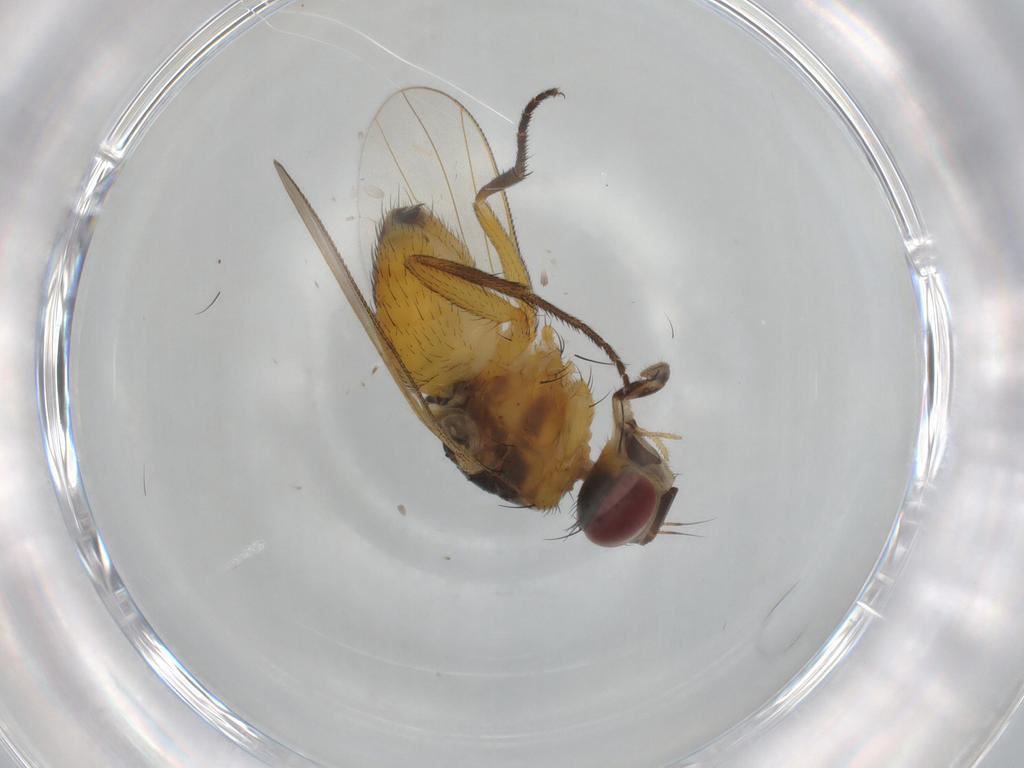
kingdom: Animalia
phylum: Arthropoda
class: Insecta
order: Diptera
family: Muscidae
